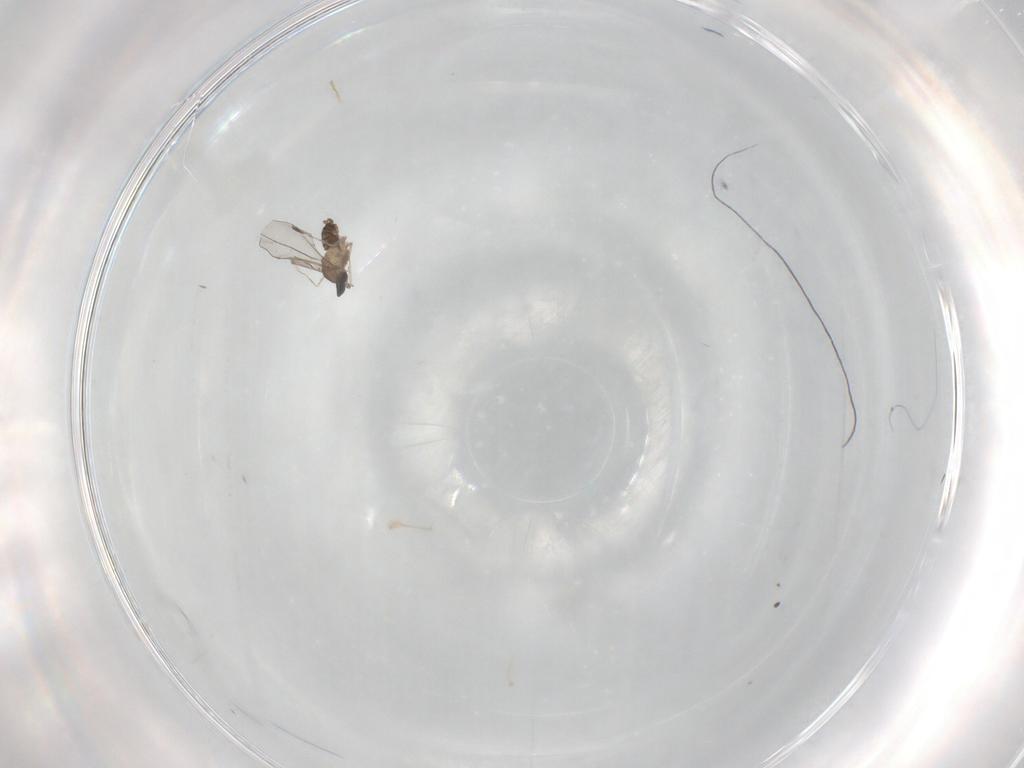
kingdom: Animalia
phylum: Arthropoda
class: Insecta
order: Diptera
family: Cecidomyiidae
